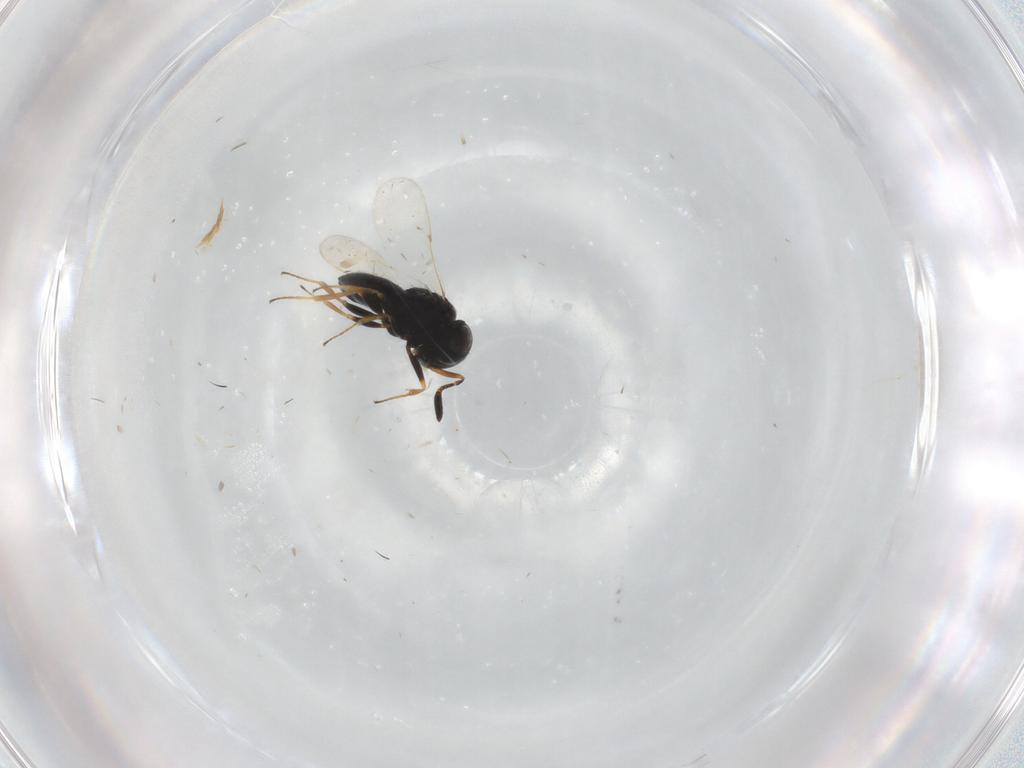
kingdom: Animalia
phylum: Arthropoda
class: Insecta
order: Coleoptera
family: Curculionidae
